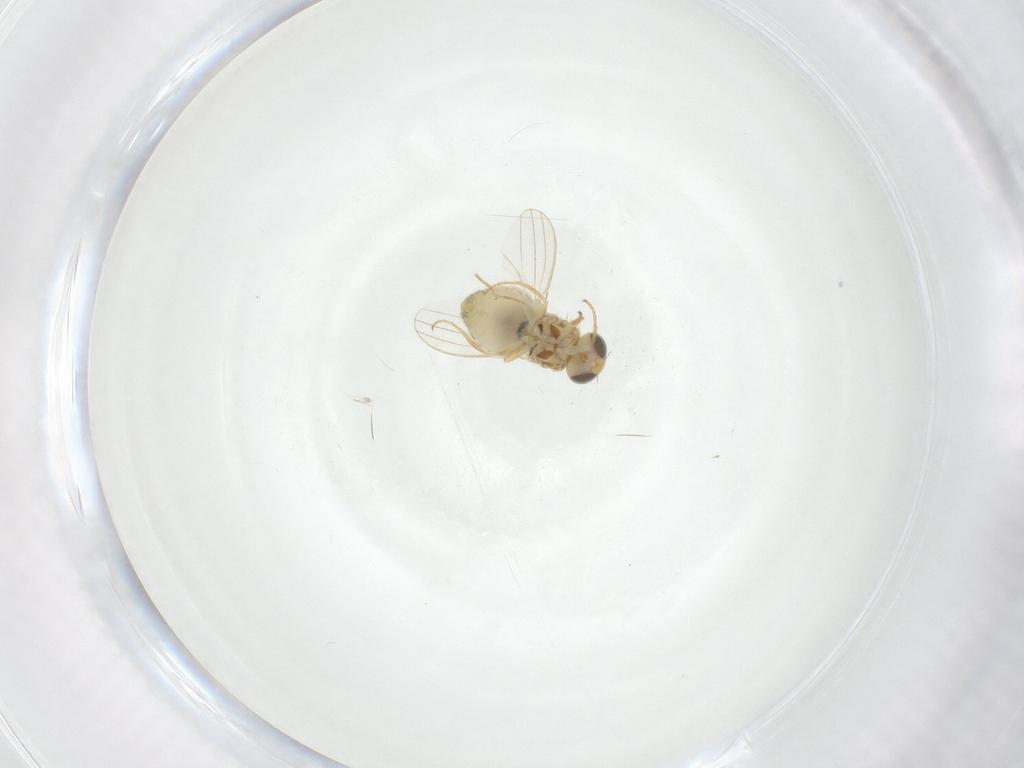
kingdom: Animalia
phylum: Arthropoda
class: Insecta
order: Diptera
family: Chyromyidae
